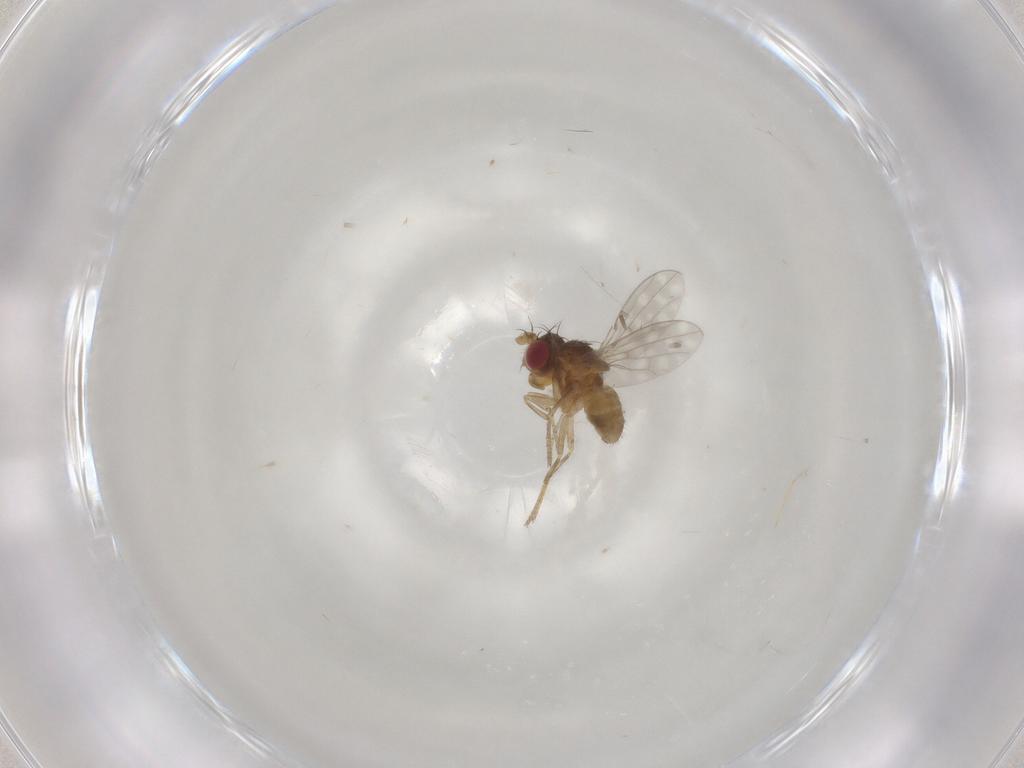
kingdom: Animalia
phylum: Arthropoda
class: Insecta
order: Diptera
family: Ephydridae
